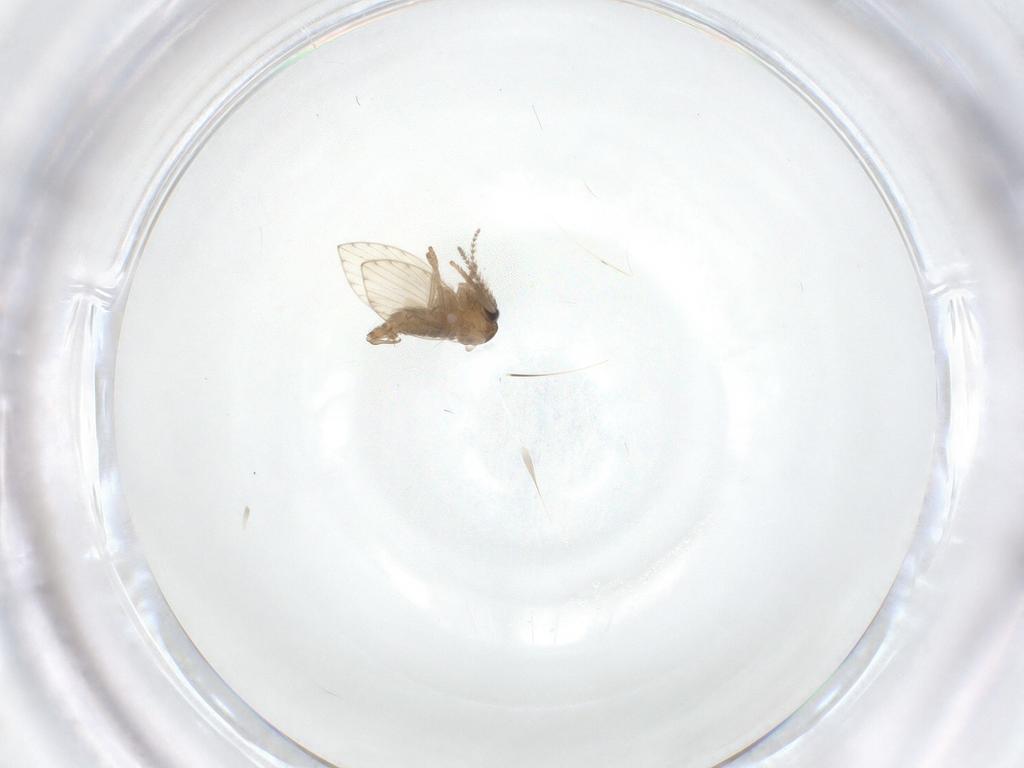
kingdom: Animalia
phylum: Arthropoda
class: Insecta
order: Diptera
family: Psychodidae
